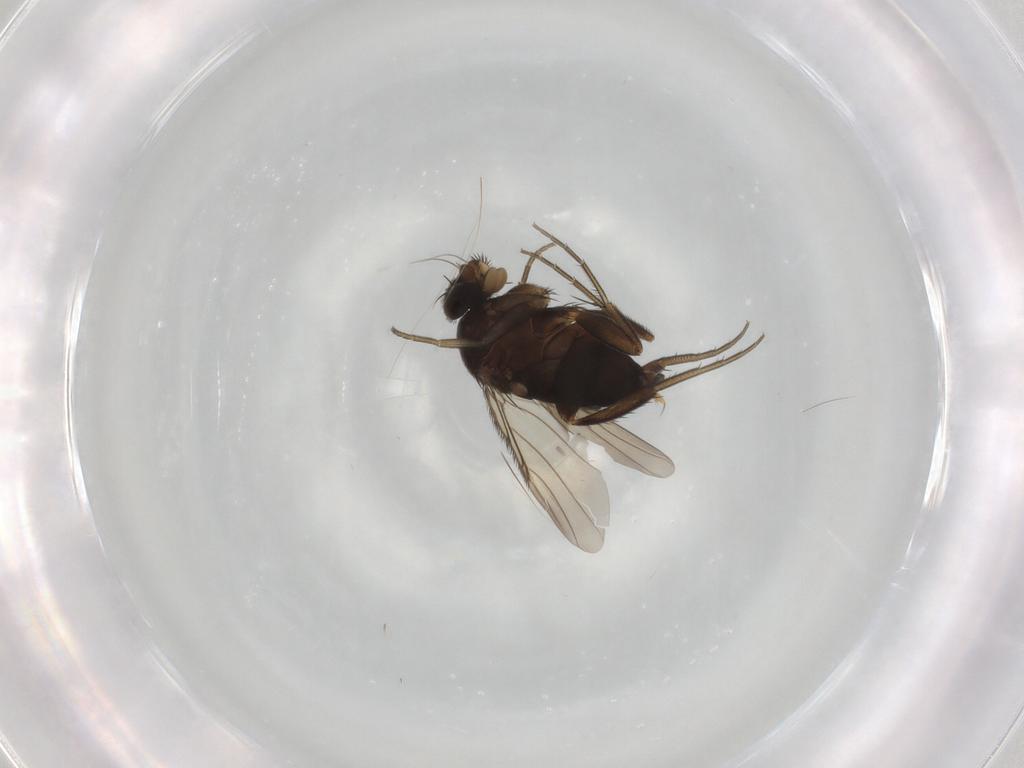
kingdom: Animalia
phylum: Arthropoda
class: Insecta
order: Diptera
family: Phoridae
